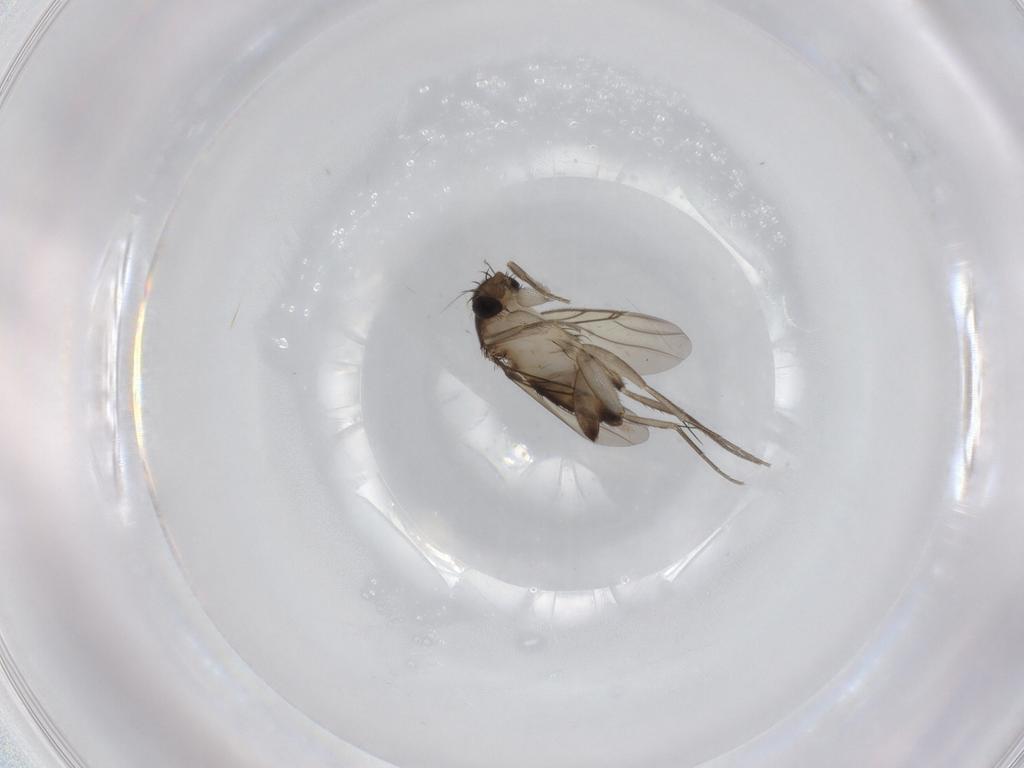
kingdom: Animalia
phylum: Arthropoda
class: Insecta
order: Diptera
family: Phoridae
